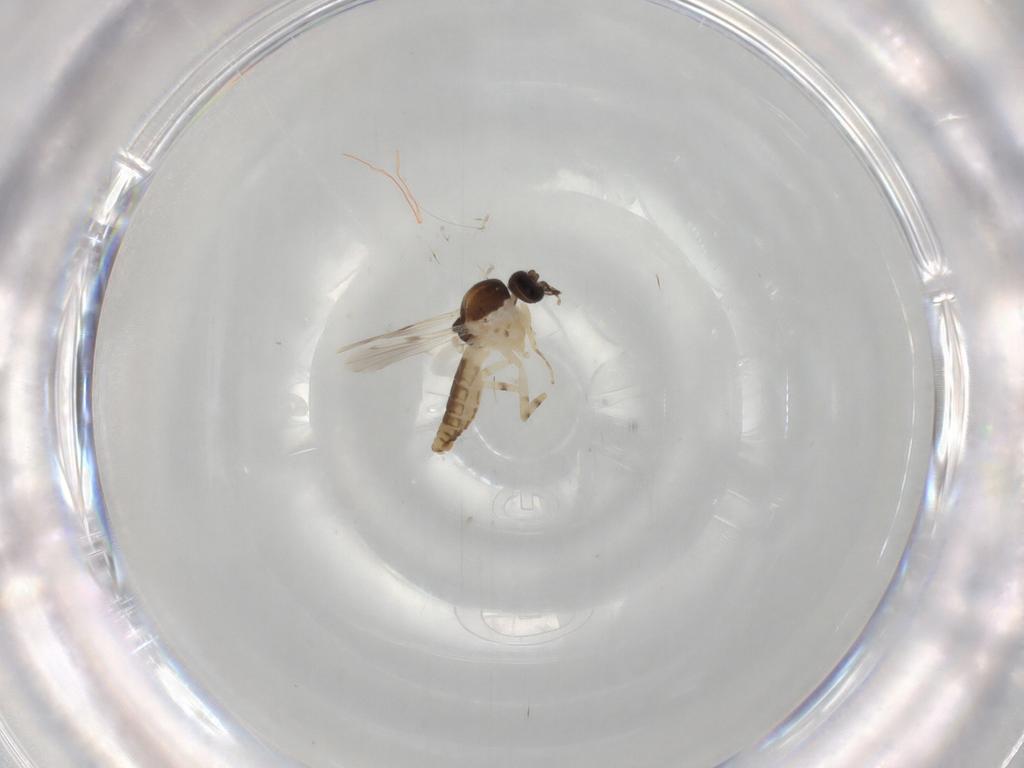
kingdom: Animalia
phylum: Arthropoda
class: Insecta
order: Diptera
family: Ceratopogonidae
